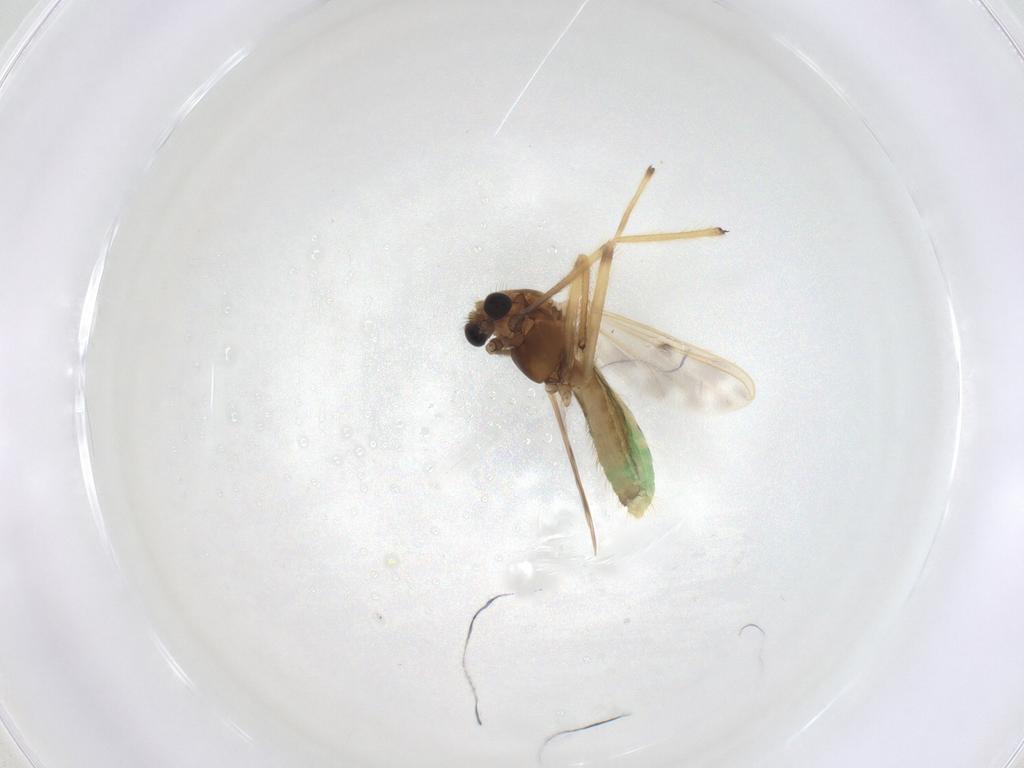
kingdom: Animalia
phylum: Arthropoda
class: Insecta
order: Diptera
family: Chironomidae
